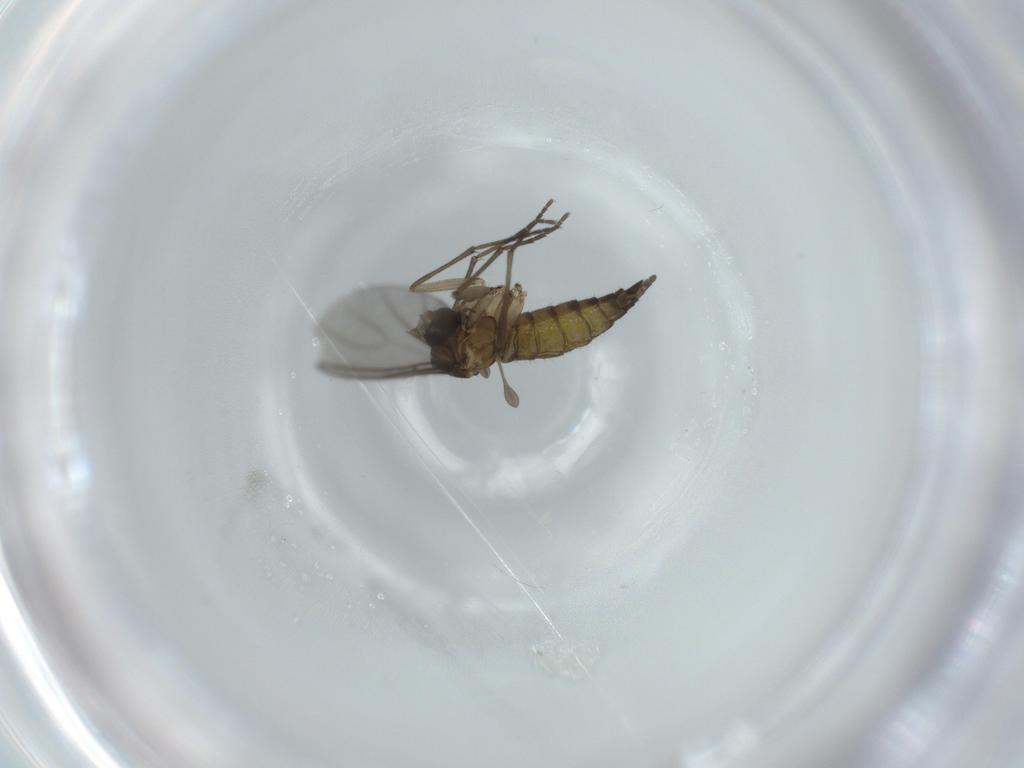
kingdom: Animalia
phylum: Arthropoda
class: Insecta
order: Diptera
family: Sciaridae
